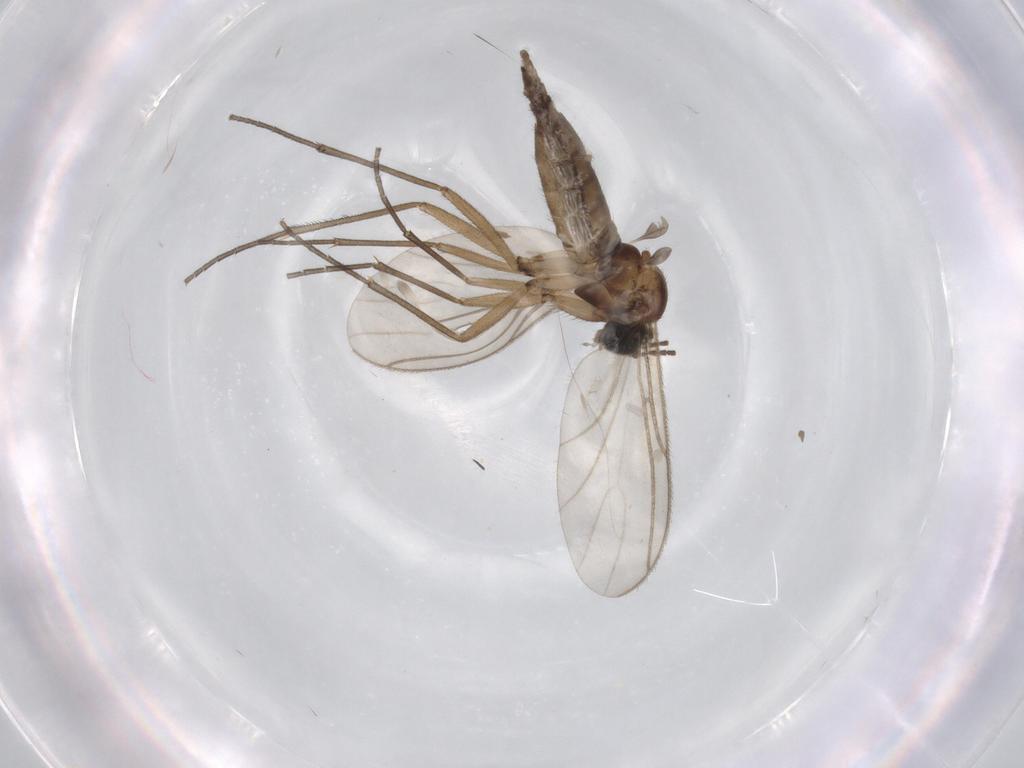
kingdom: Animalia
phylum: Arthropoda
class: Insecta
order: Diptera
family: Sciaridae
